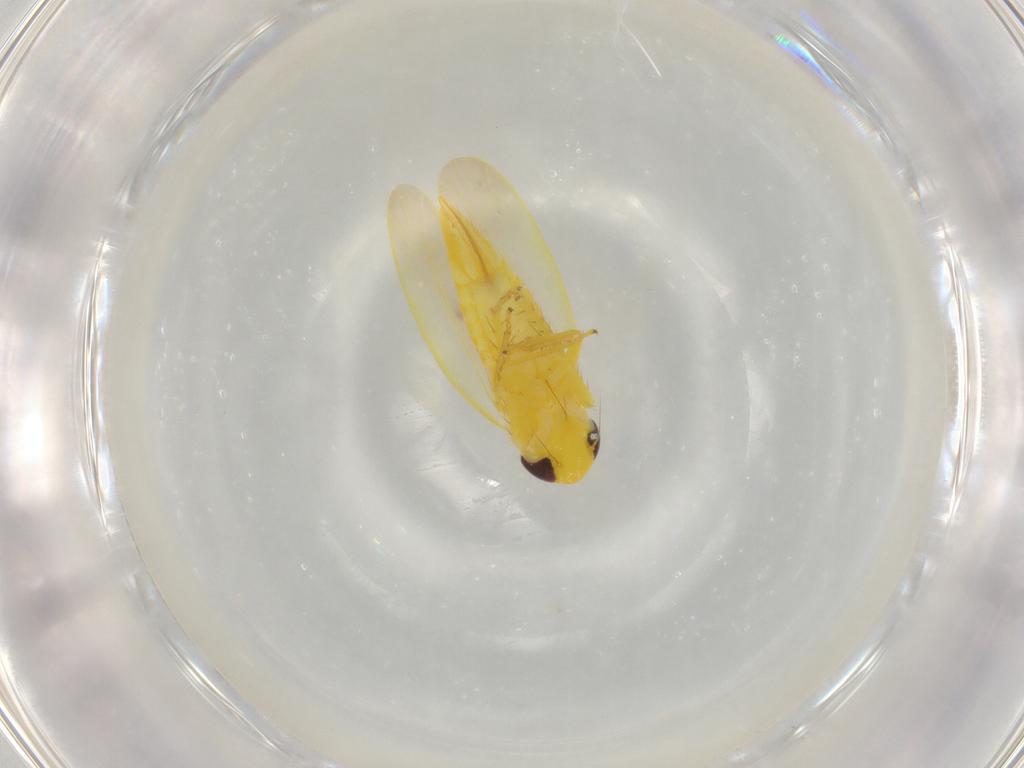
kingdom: Animalia
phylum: Arthropoda
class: Insecta
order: Hemiptera
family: Cicadellidae
